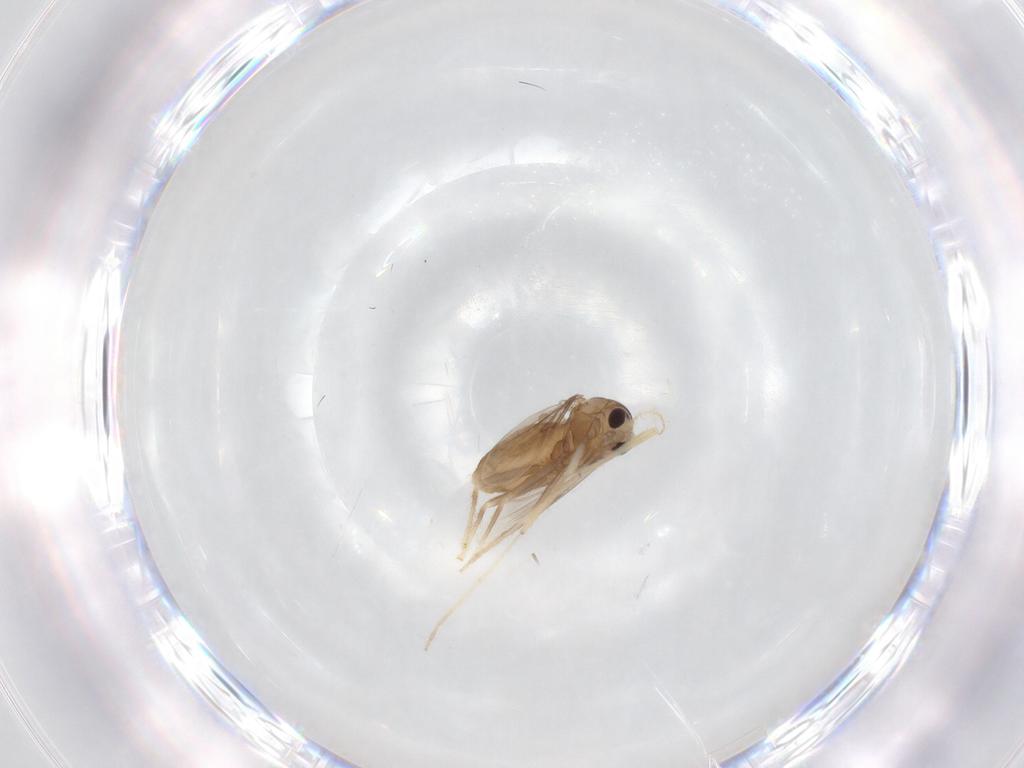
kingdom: Animalia
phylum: Arthropoda
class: Insecta
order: Diptera
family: Chironomidae
